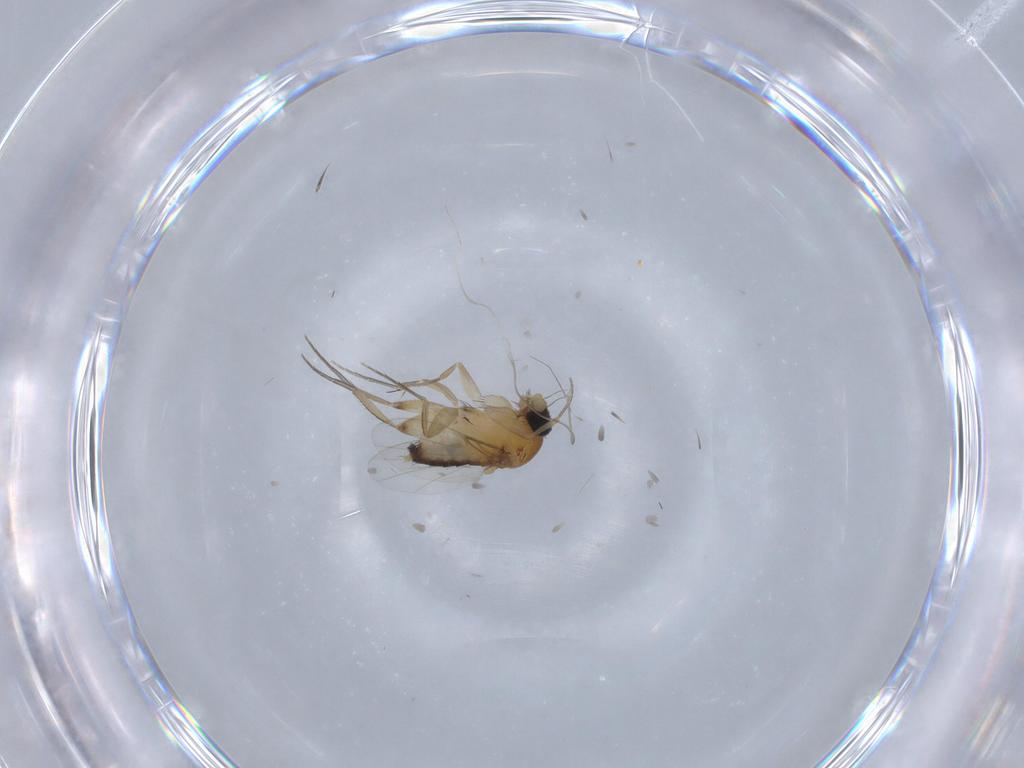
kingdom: Animalia
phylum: Arthropoda
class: Insecta
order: Diptera
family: Phoridae
